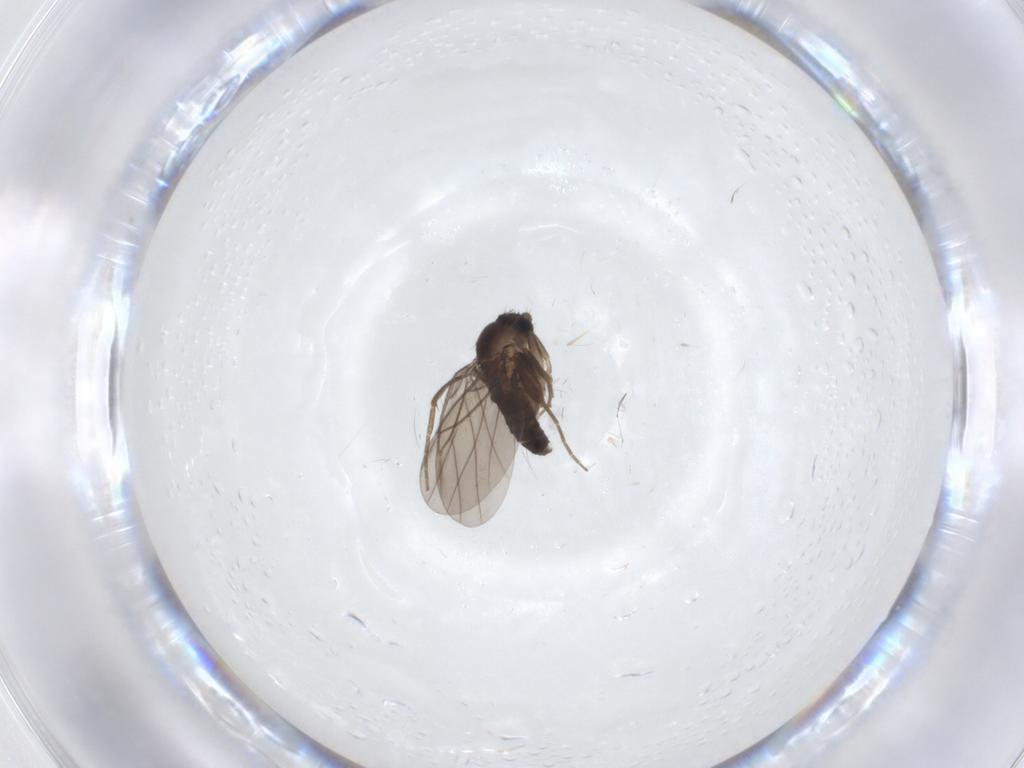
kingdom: Animalia
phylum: Arthropoda
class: Insecta
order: Diptera
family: Sciaridae
